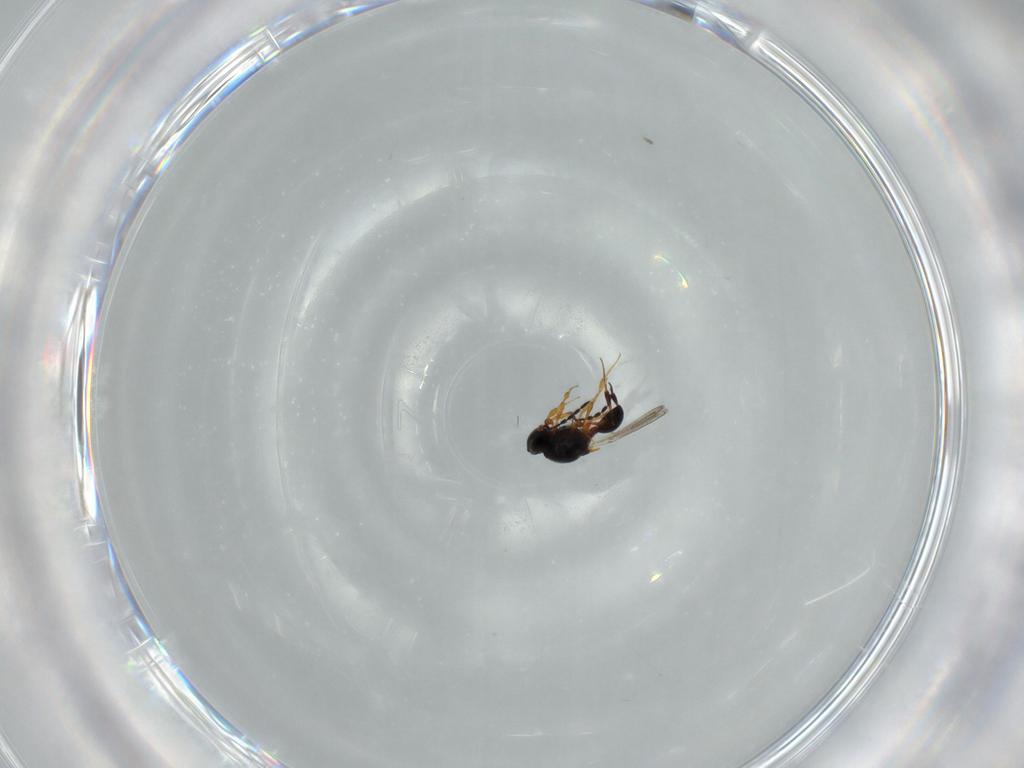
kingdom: Animalia
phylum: Arthropoda
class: Insecta
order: Hymenoptera
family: Platygastridae
